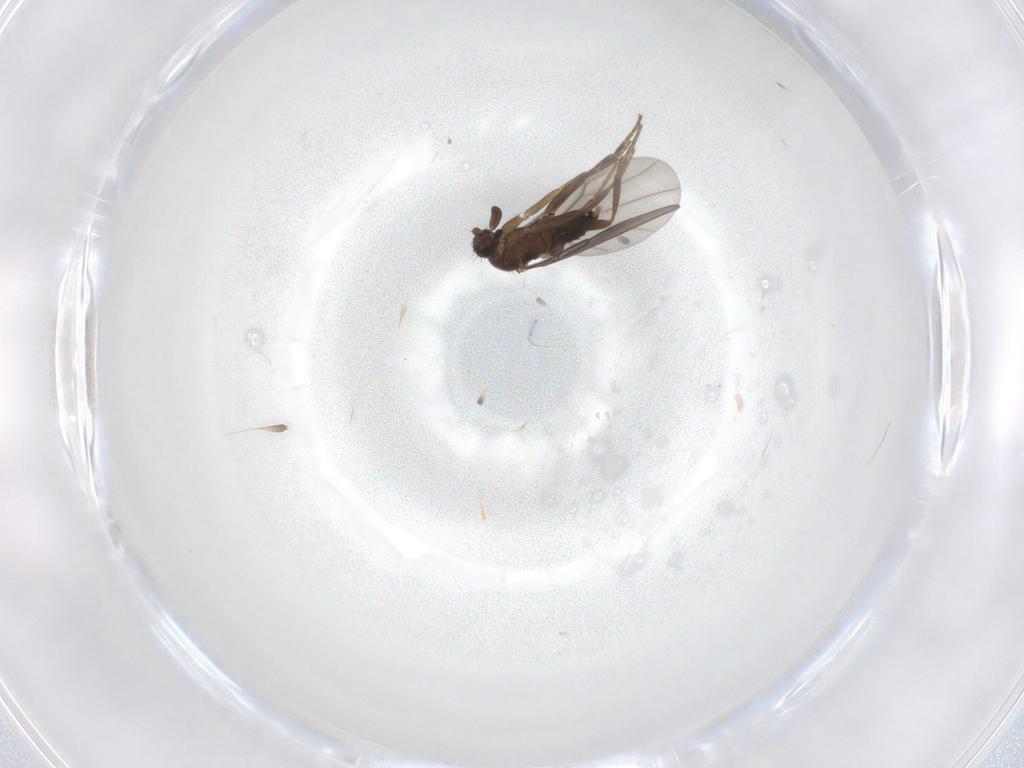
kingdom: Animalia
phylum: Arthropoda
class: Insecta
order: Diptera
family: Phoridae
